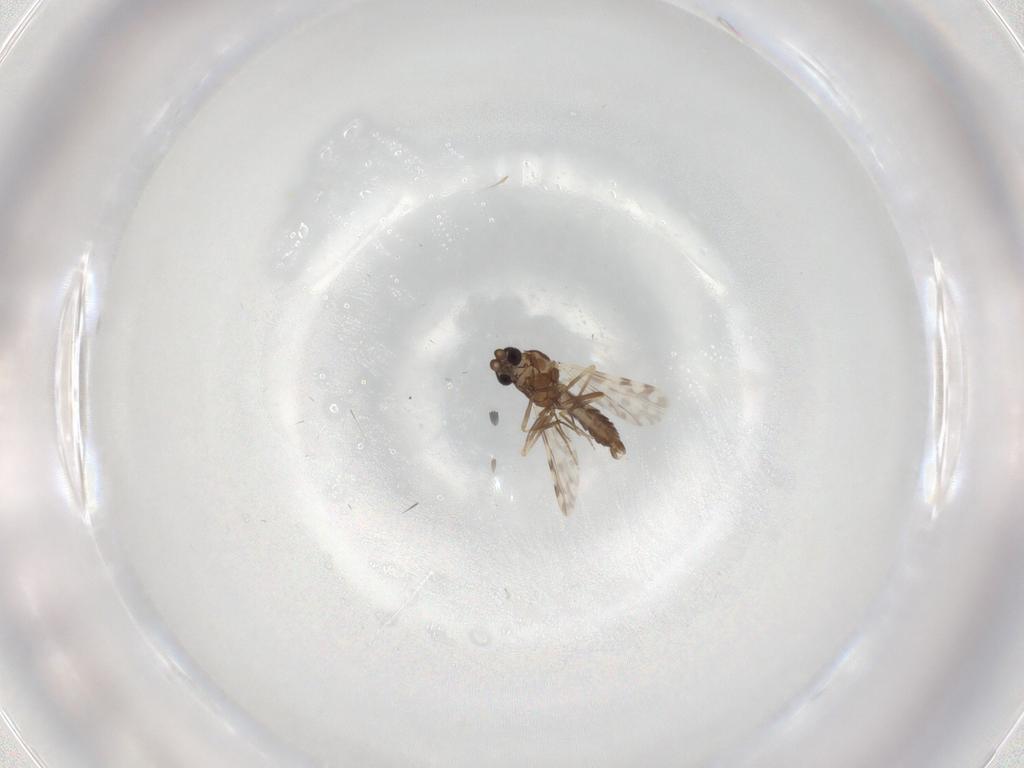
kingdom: Animalia
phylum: Arthropoda
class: Insecta
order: Diptera
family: Ceratopogonidae
